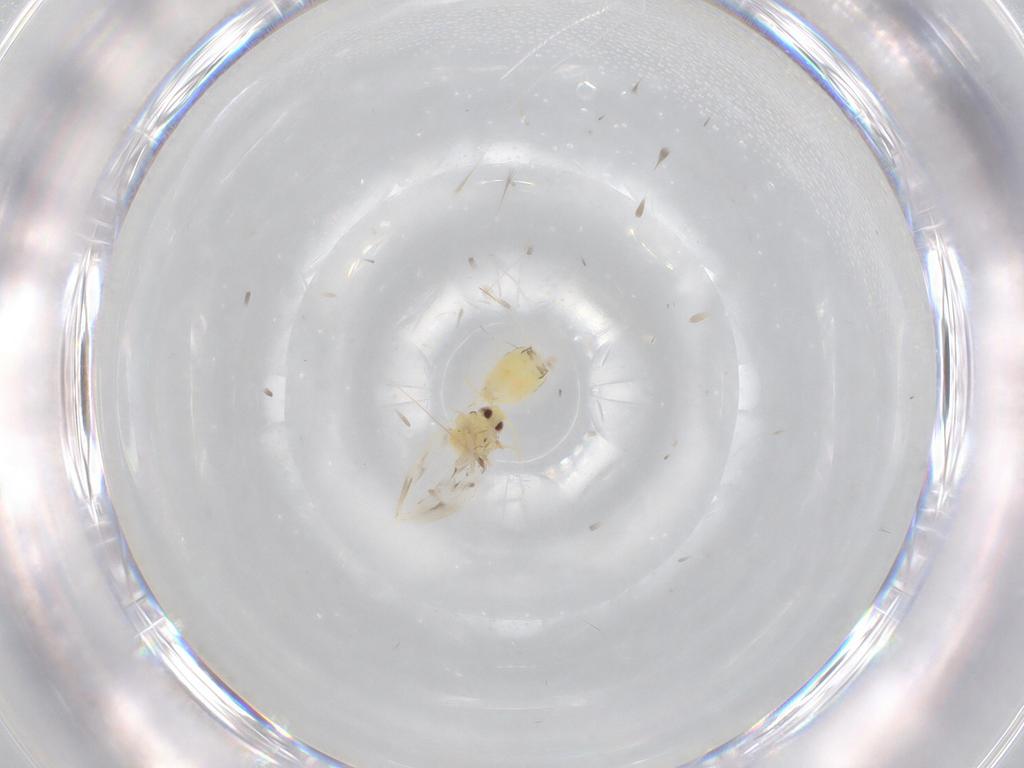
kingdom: Animalia
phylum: Arthropoda
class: Insecta
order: Hemiptera
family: Aleyrodidae
